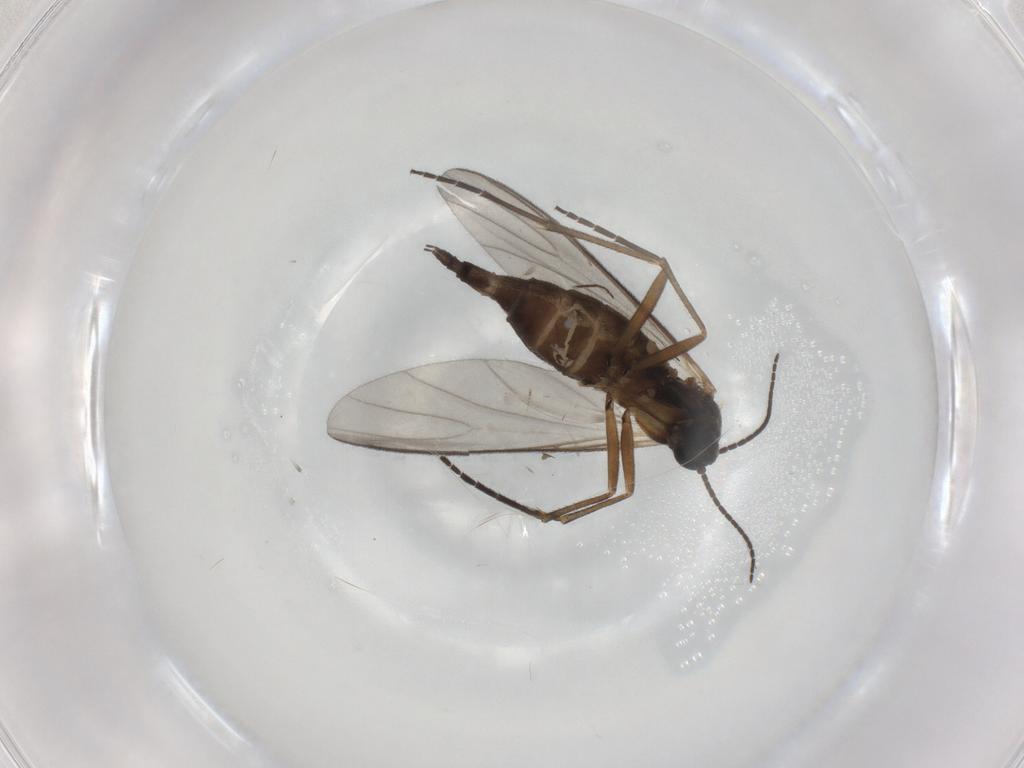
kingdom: Animalia
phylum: Arthropoda
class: Insecta
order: Diptera
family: Sciaridae
